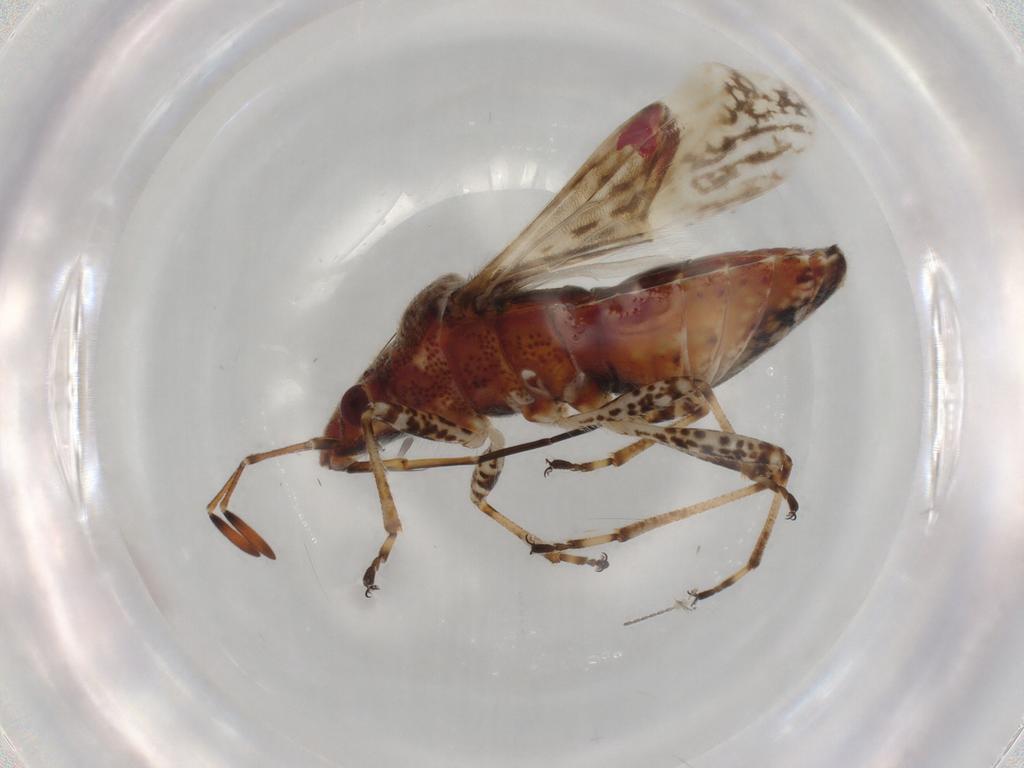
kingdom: Animalia
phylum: Arthropoda
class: Insecta
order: Hemiptera
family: Lygaeidae
